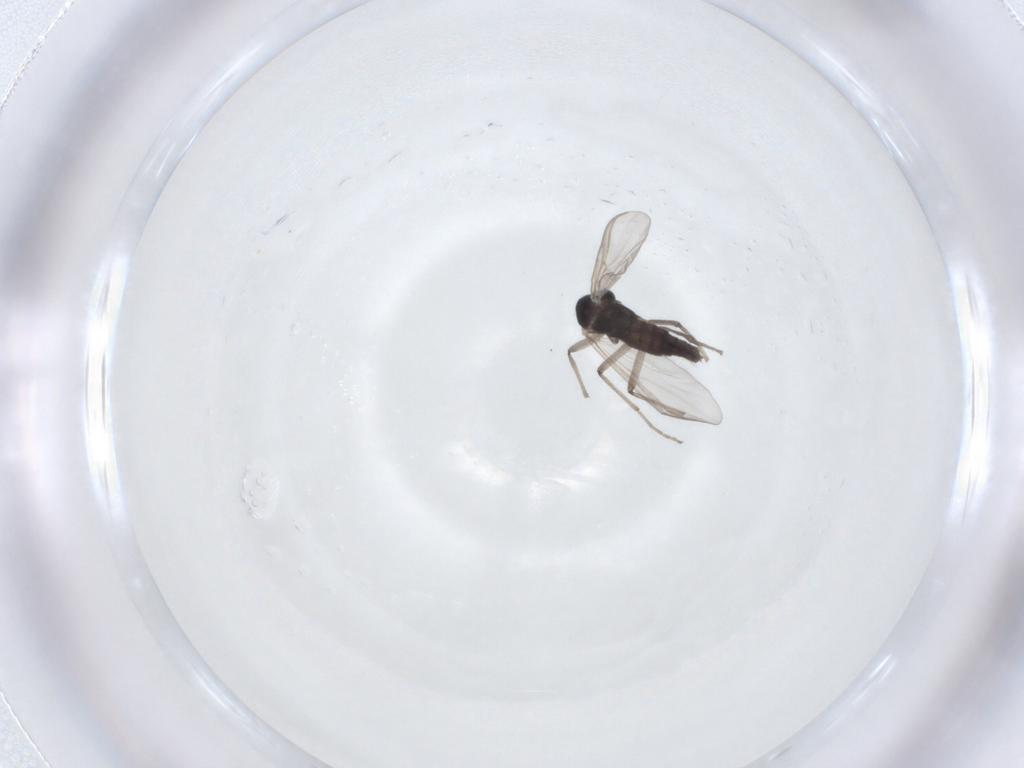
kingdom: Animalia
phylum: Arthropoda
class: Insecta
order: Diptera
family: Chironomidae
